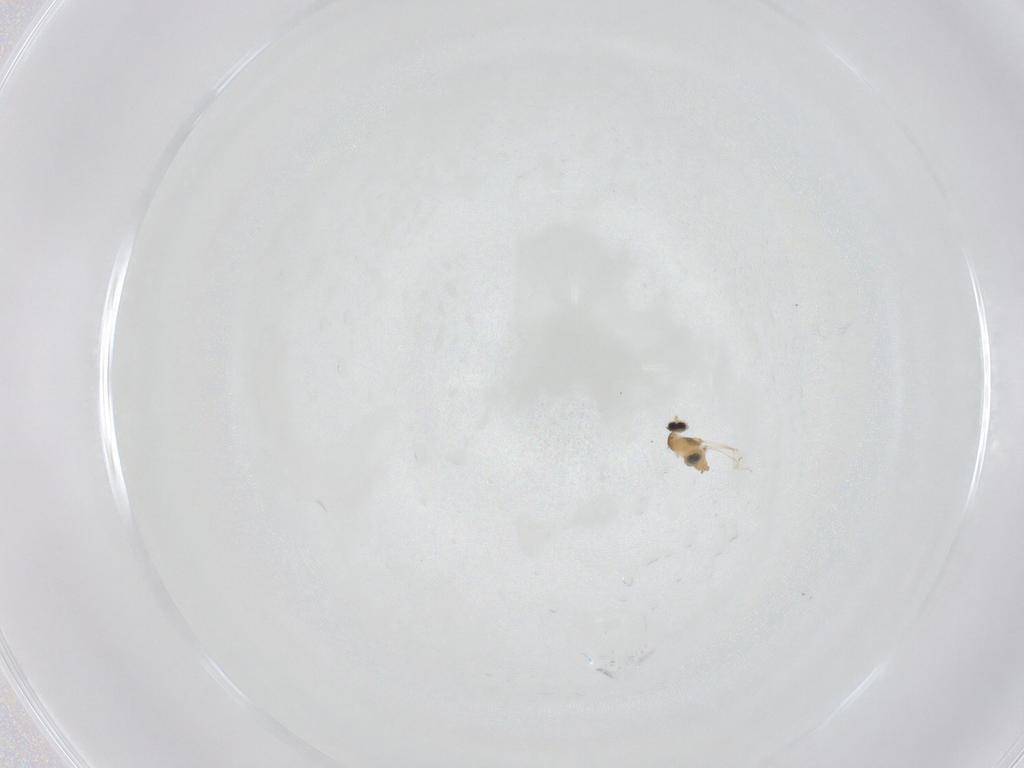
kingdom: Animalia
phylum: Arthropoda
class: Insecta
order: Diptera
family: Cecidomyiidae
